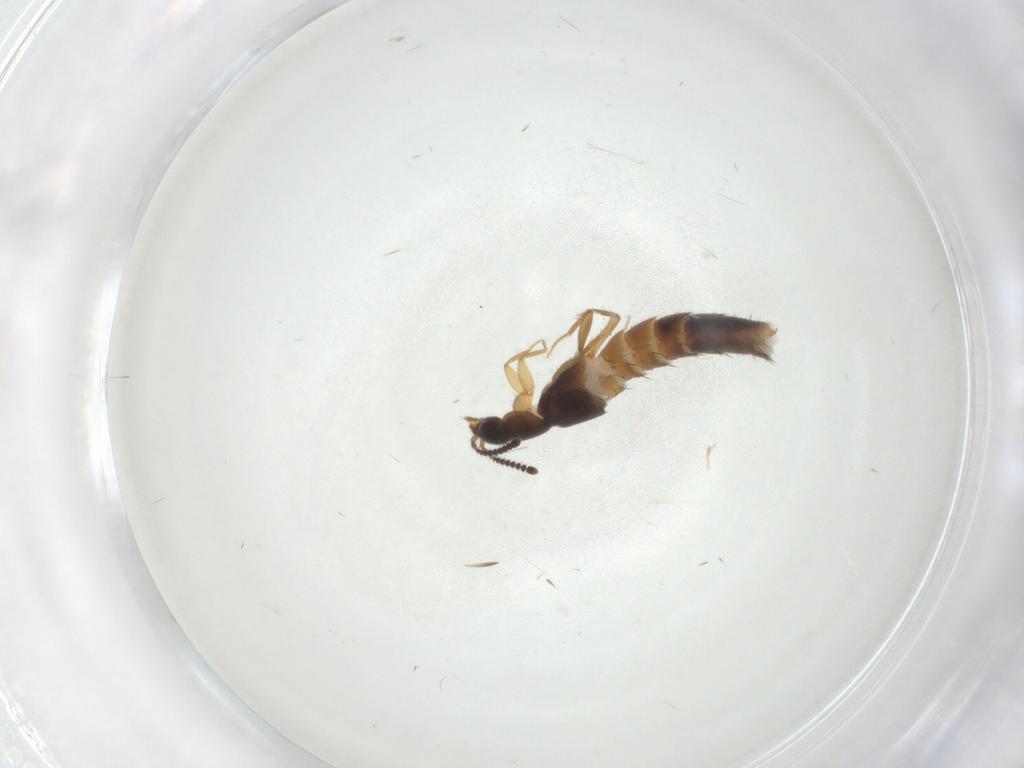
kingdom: Animalia
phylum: Arthropoda
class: Insecta
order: Coleoptera
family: Staphylinidae
